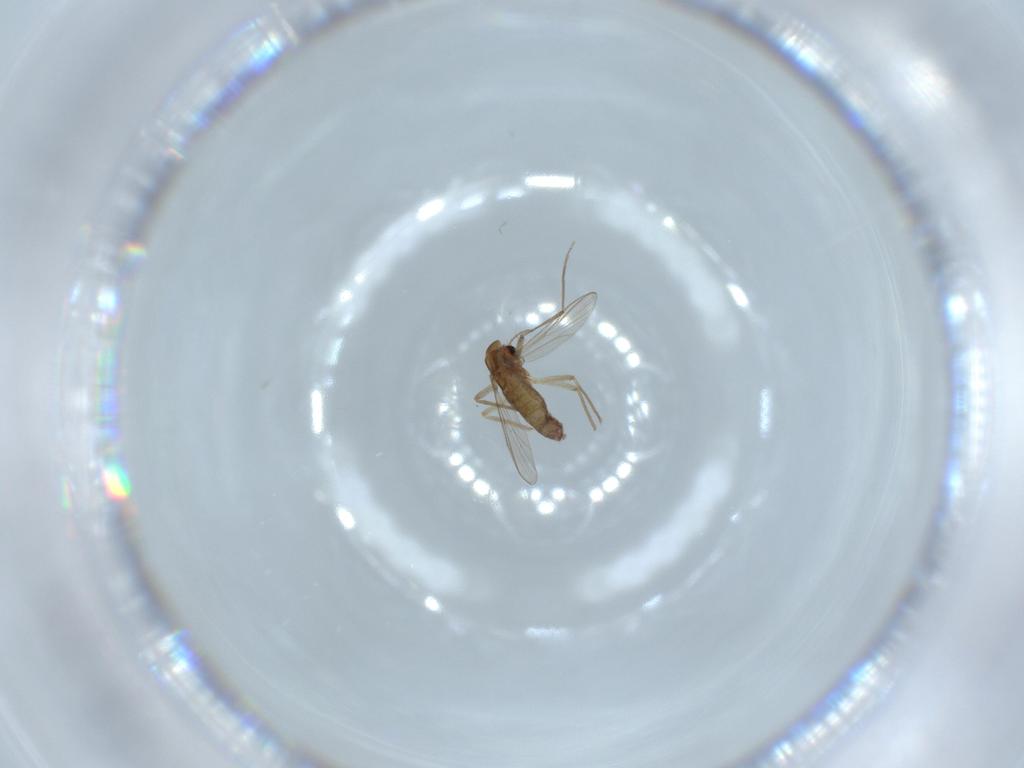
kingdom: Animalia
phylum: Arthropoda
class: Insecta
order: Diptera
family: Chironomidae
